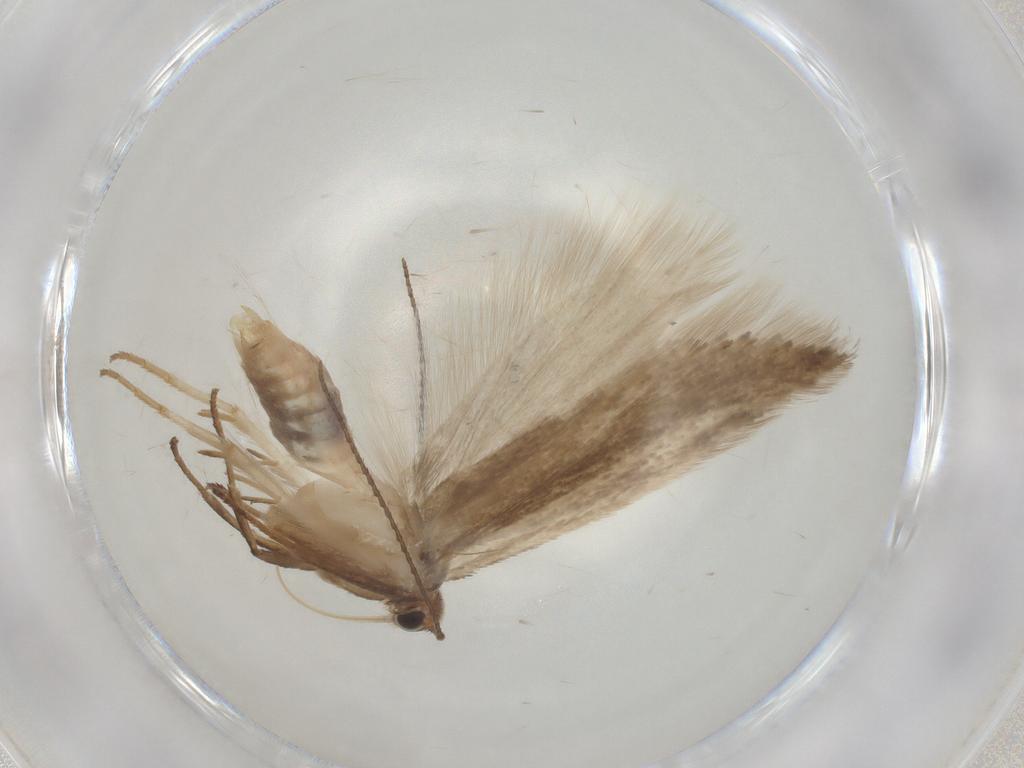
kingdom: Animalia
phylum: Arthropoda
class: Insecta
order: Lepidoptera
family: Gelechiidae
